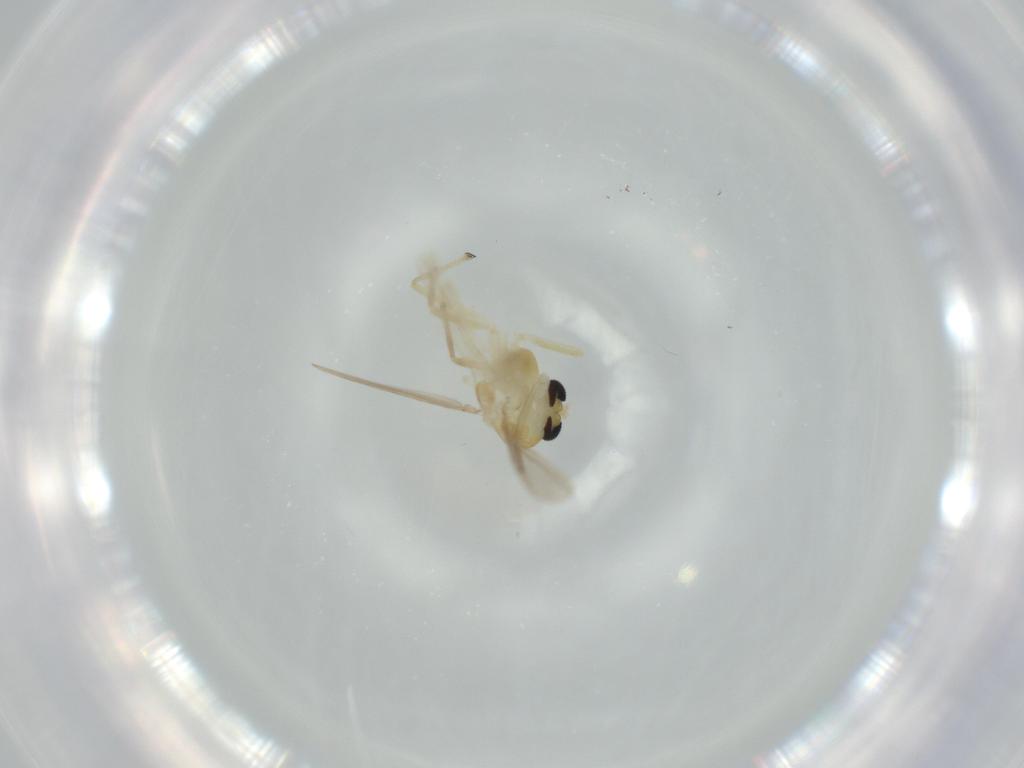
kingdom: Animalia
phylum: Arthropoda
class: Insecta
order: Diptera
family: Chironomidae
